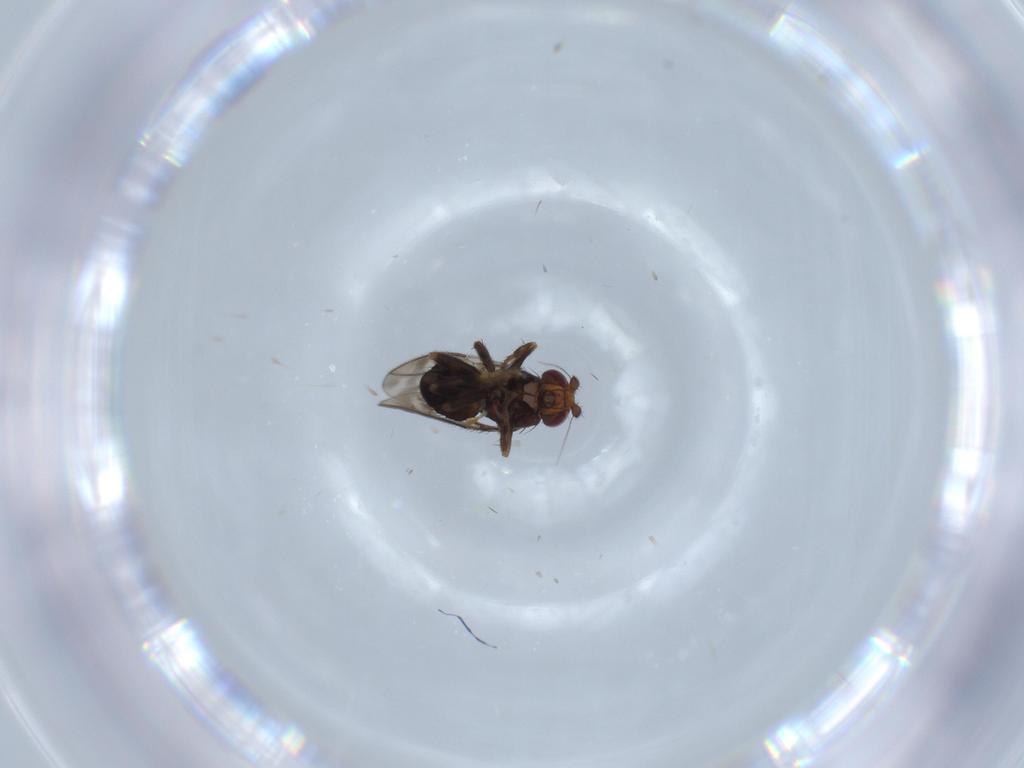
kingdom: Animalia
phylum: Arthropoda
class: Insecta
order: Diptera
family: Sphaeroceridae
